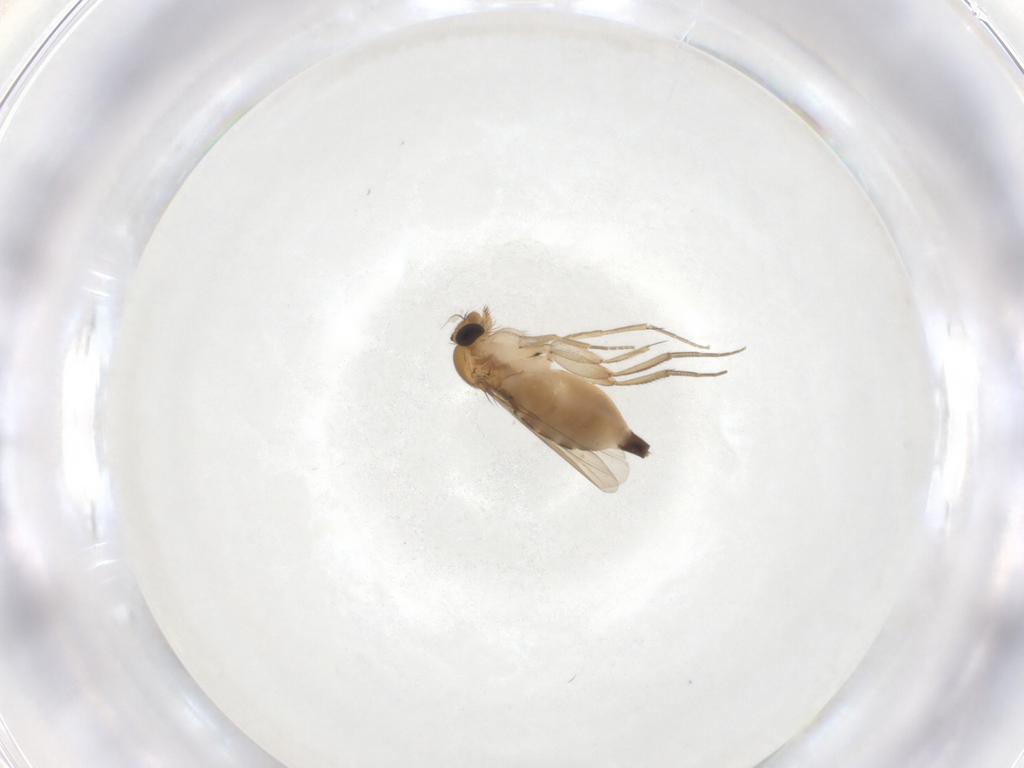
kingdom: Animalia
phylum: Arthropoda
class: Insecta
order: Diptera
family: Phoridae
